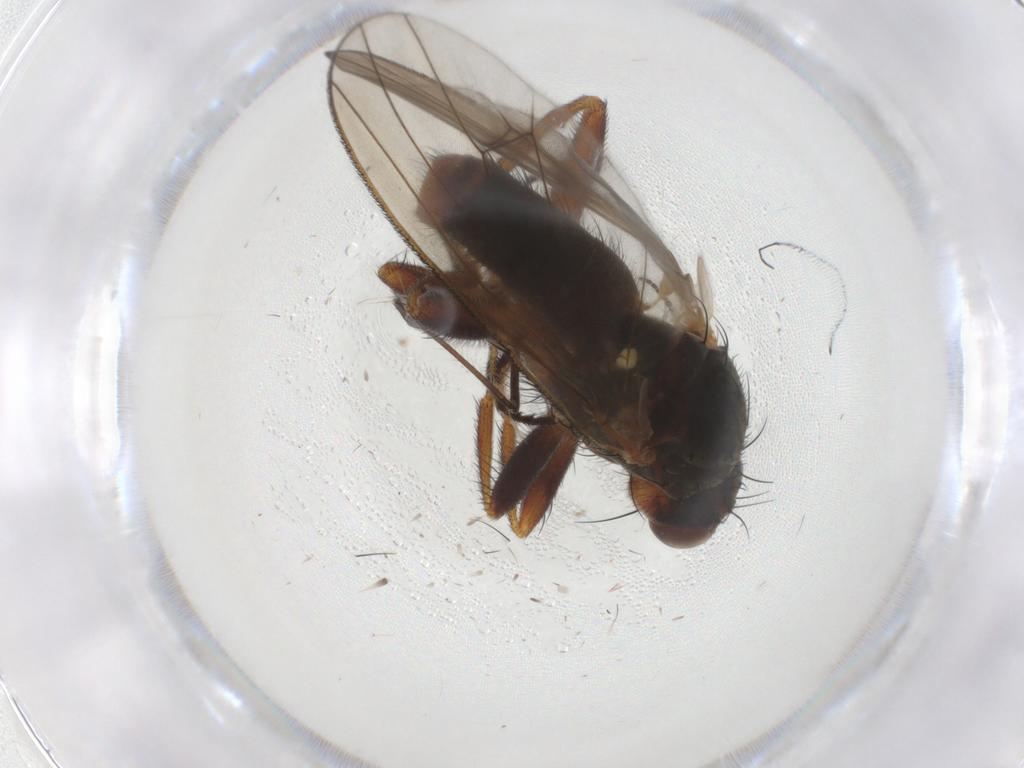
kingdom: Animalia
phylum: Arthropoda
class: Insecta
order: Diptera
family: Heleomyzidae
